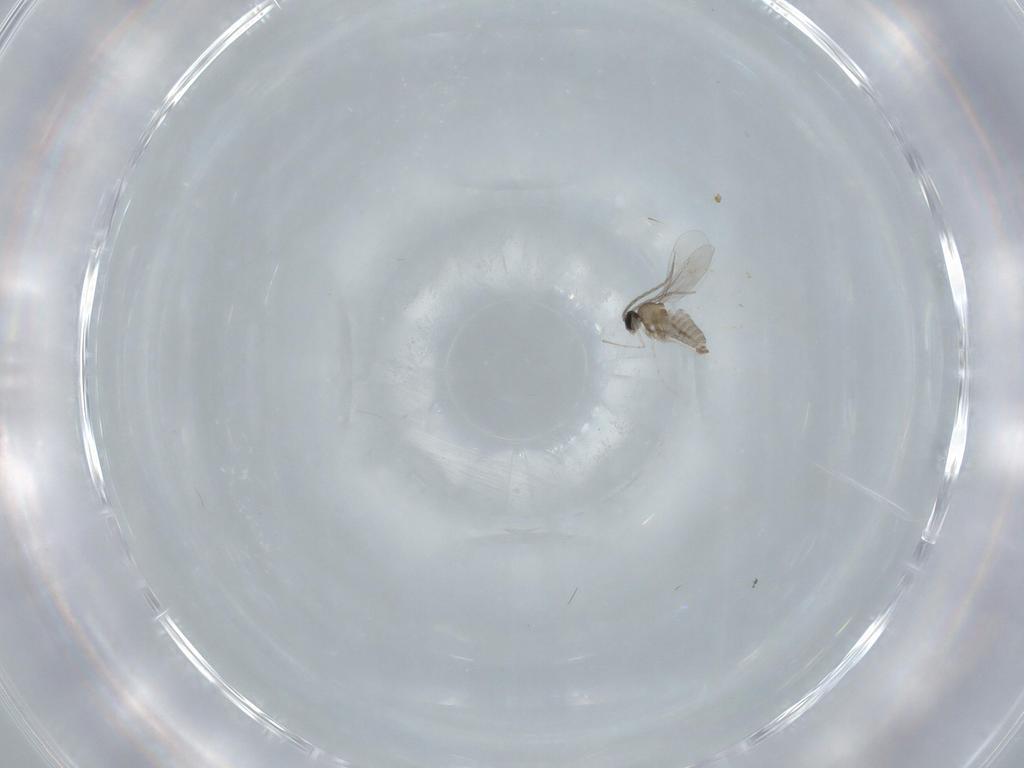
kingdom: Animalia
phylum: Arthropoda
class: Insecta
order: Diptera
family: Cecidomyiidae
